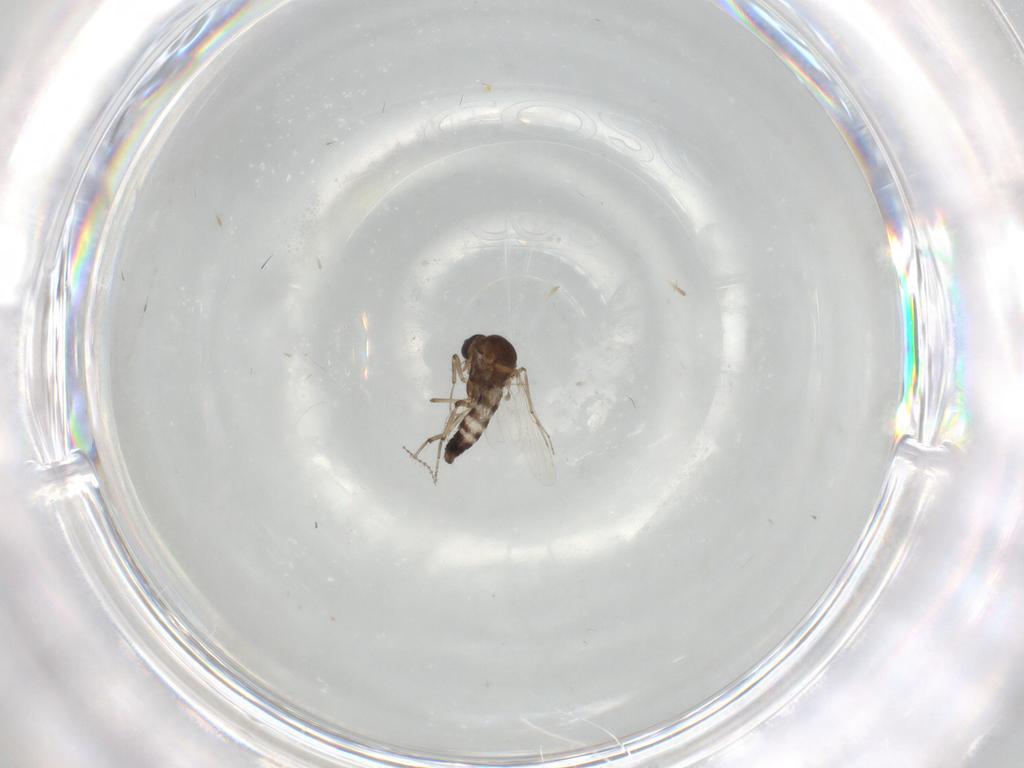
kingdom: Animalia
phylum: Arthropoda
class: Insecta
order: Diptera
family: Ceratopogonidae
